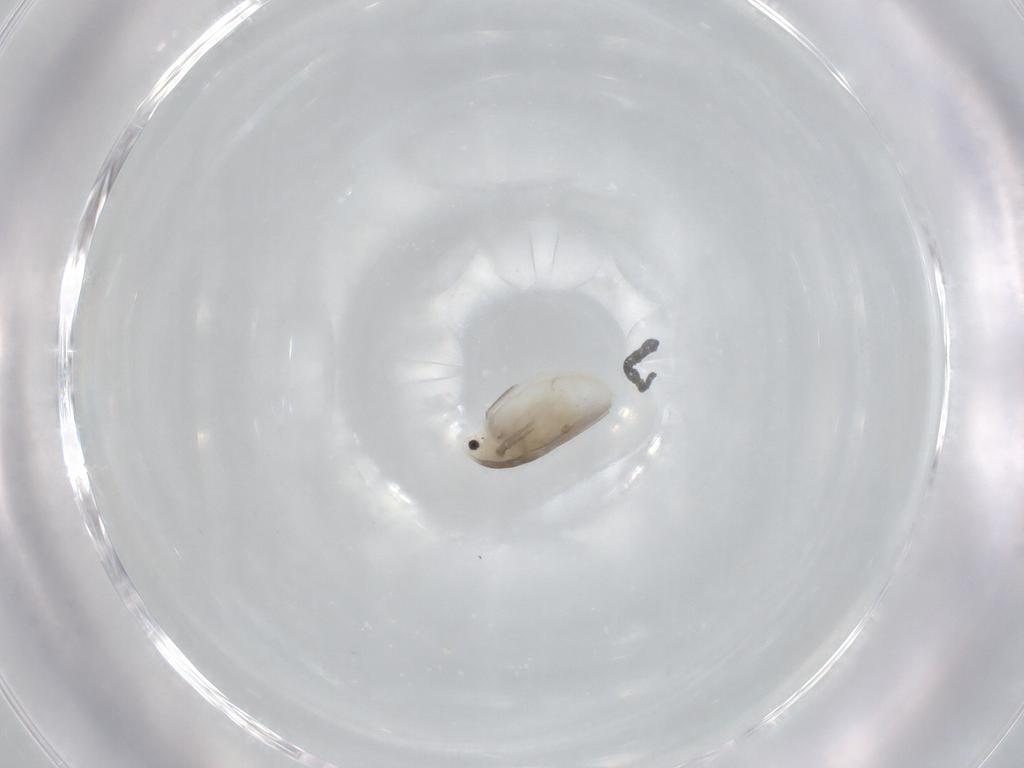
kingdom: Animalia
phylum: Arthropoda
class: Branchiopoda
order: Diplostraca
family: Daphniidae
